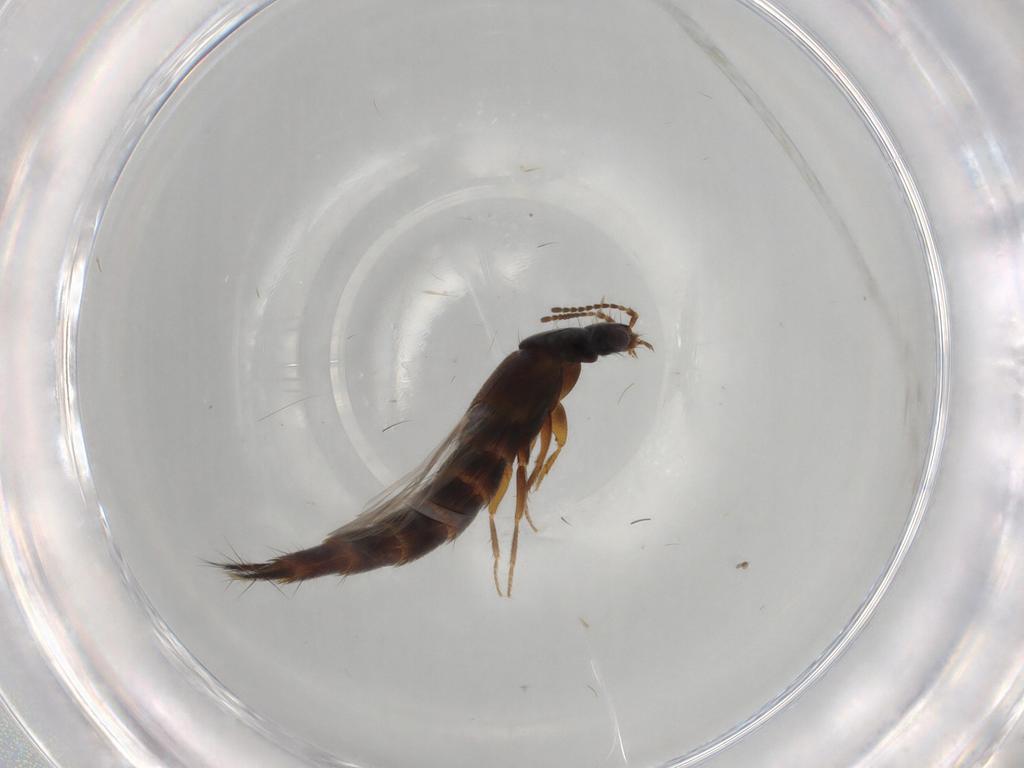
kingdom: Animalia
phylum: Arthropoda
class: Insecta
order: Coleoptera
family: Staphylinidae
